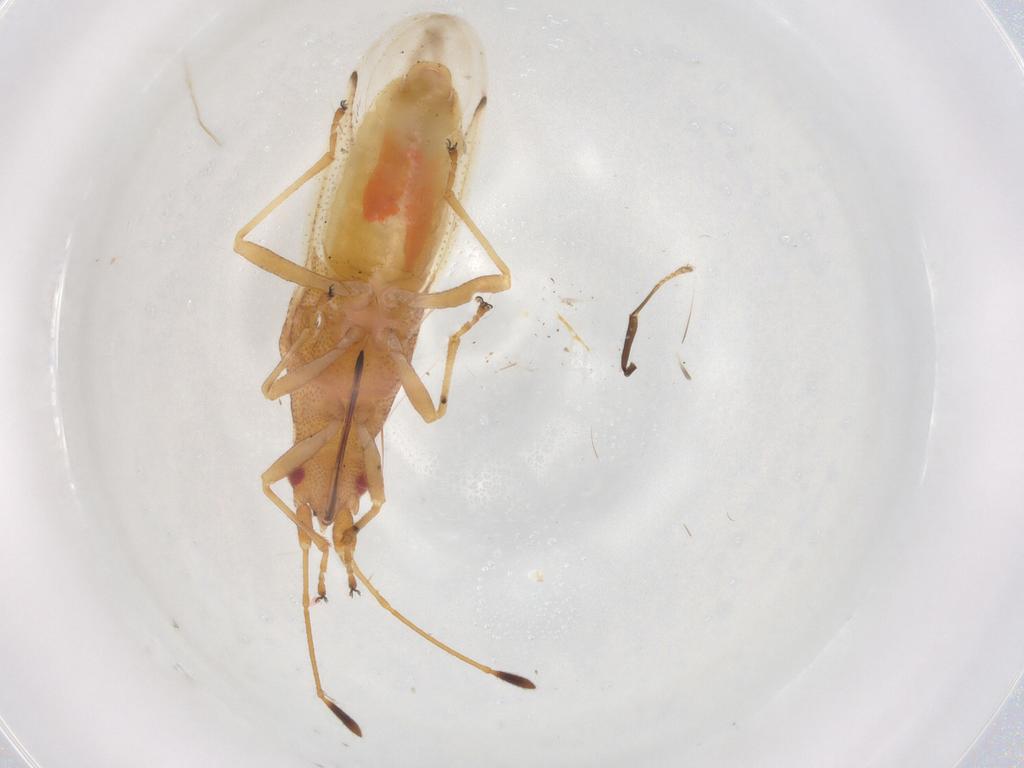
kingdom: Animalia
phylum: Arthropoda
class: Insecta
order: Hemiptera
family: Cymidae
